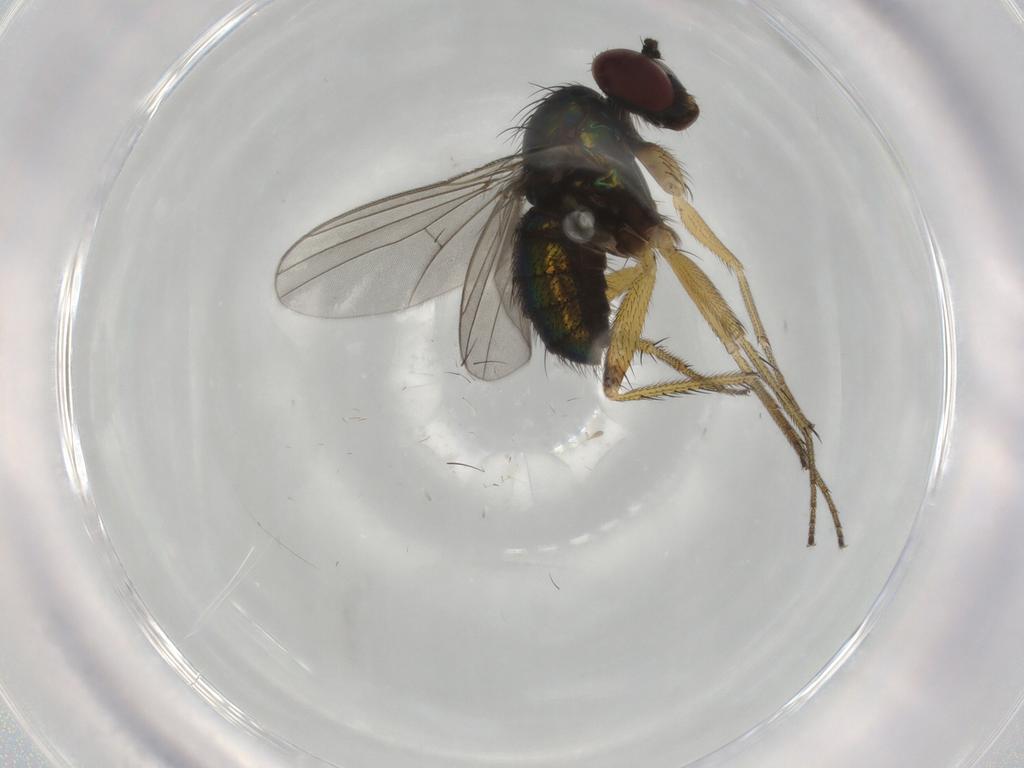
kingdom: Animalia
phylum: Arthropoda
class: Insecta
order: Diptera
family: Dolichopodidae
